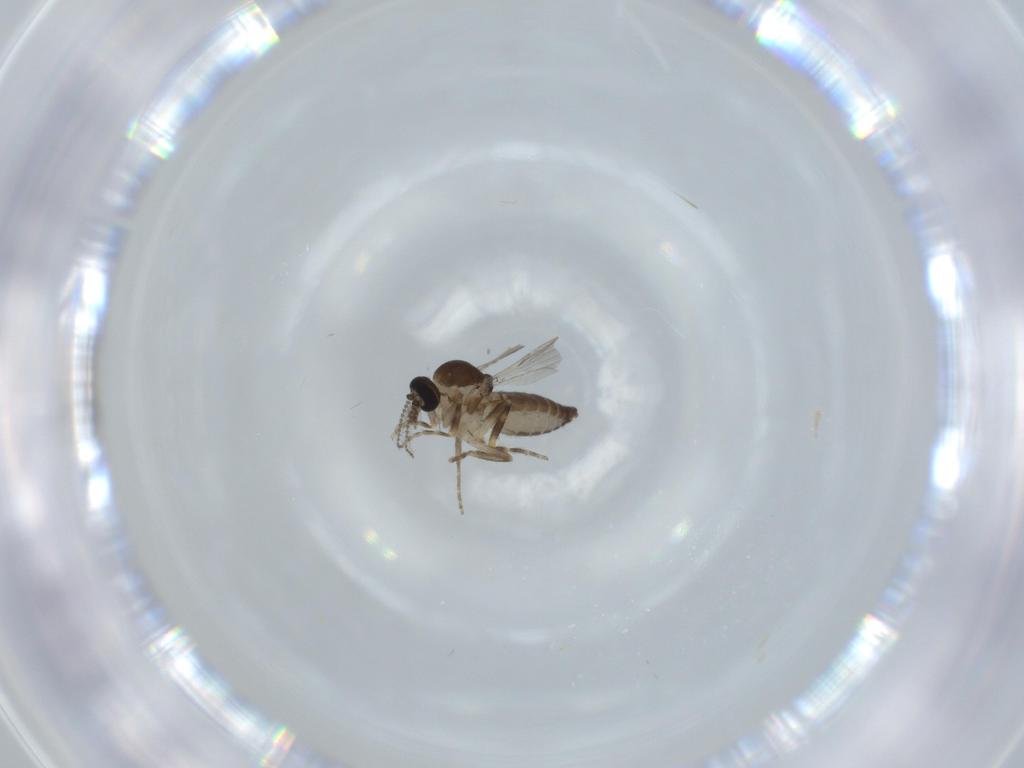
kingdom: Animalia
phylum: Arthropoda
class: Insecta
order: Diptera
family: Ceratopogonidae
